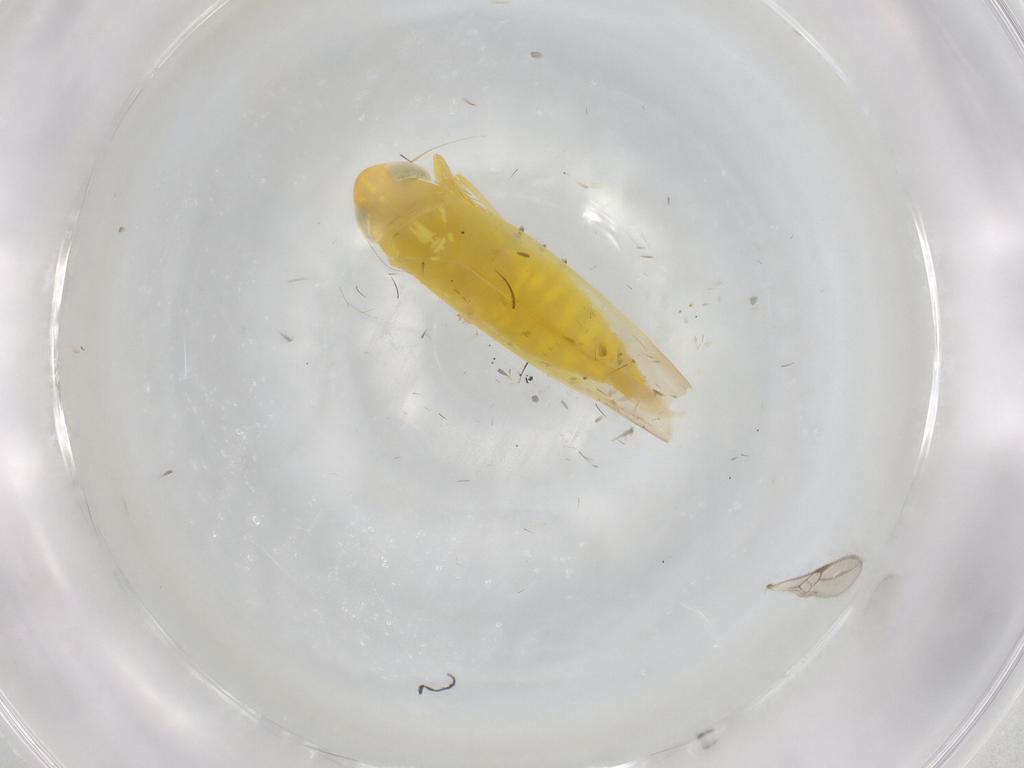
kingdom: Animalia
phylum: Arthropoda
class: Insecta
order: Hemiptera
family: Cicadellidae
